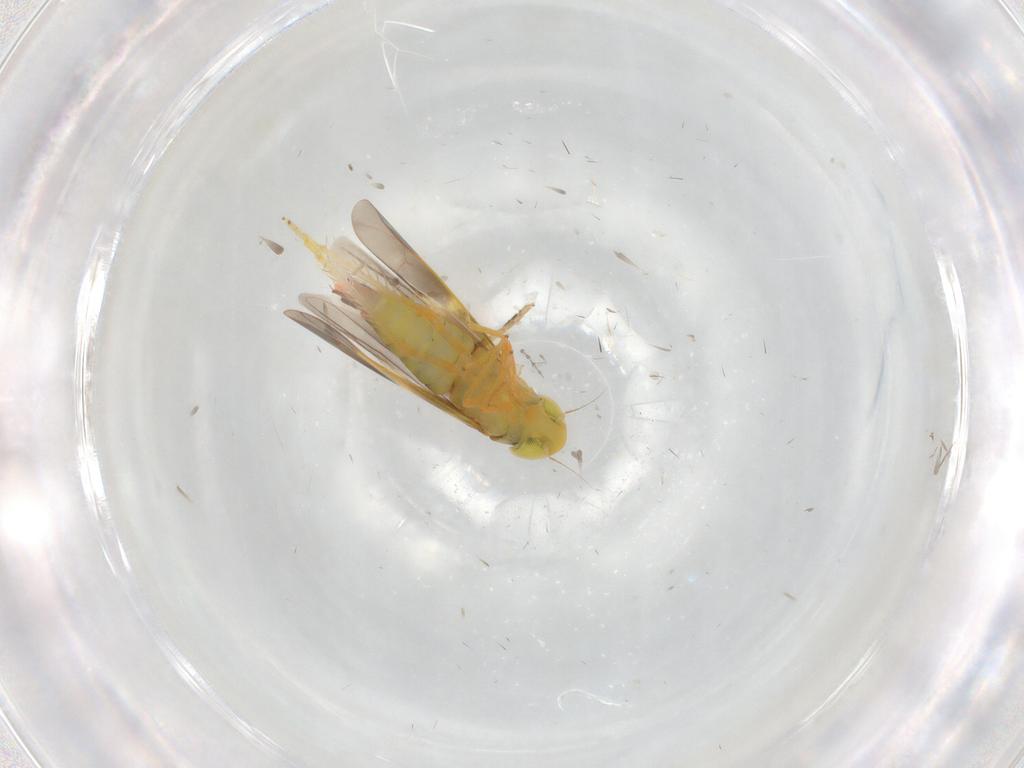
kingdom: Animalia
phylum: Arthropoda
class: Insecta
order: Hemiptera
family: Cicadellidae
